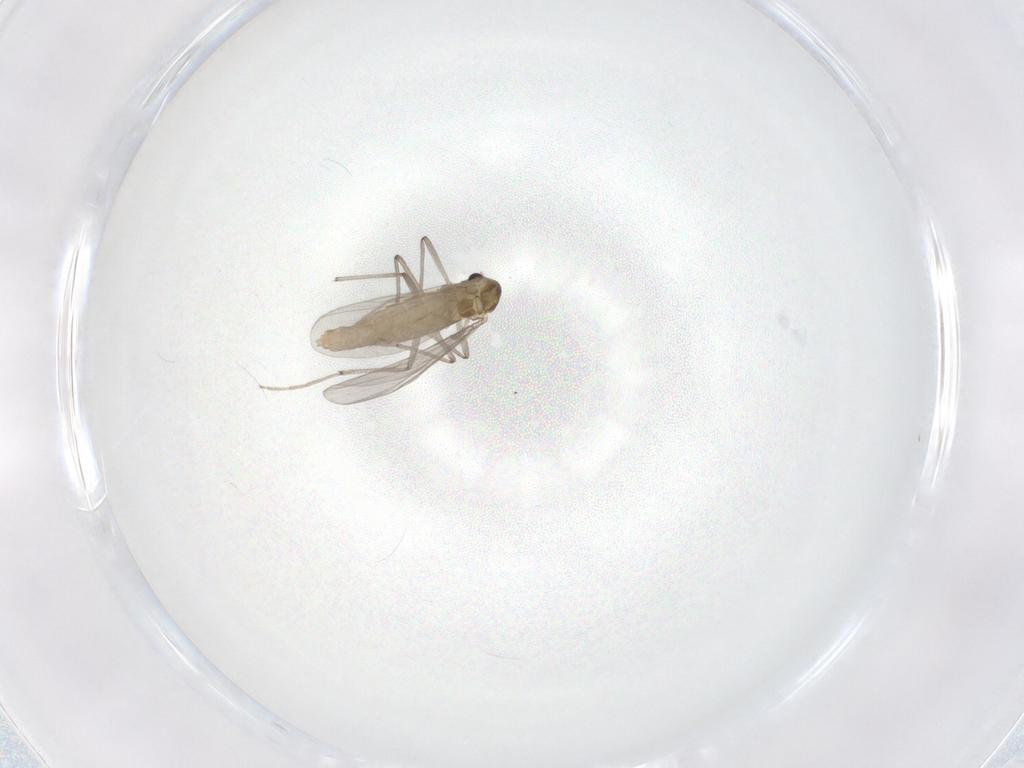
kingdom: Animalia
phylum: Arthropoda
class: Insecta
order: Diptera
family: Chironomidae
